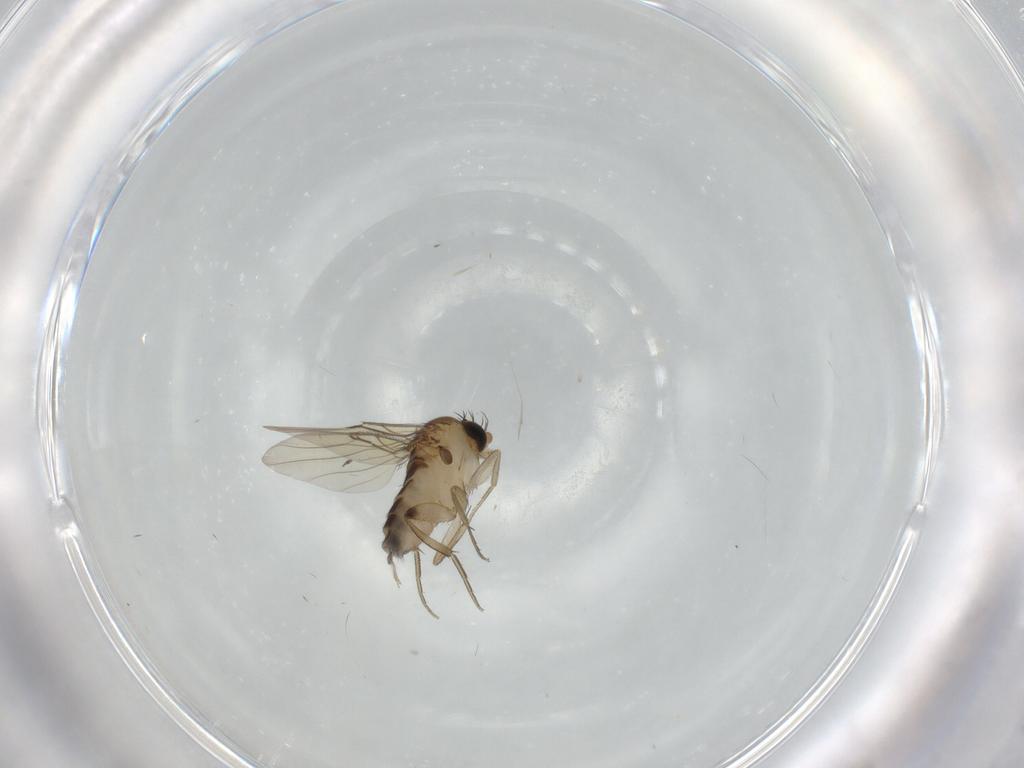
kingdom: Animalia
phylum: Arthropoda
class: Insecta
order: Diptera
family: Phoridae
